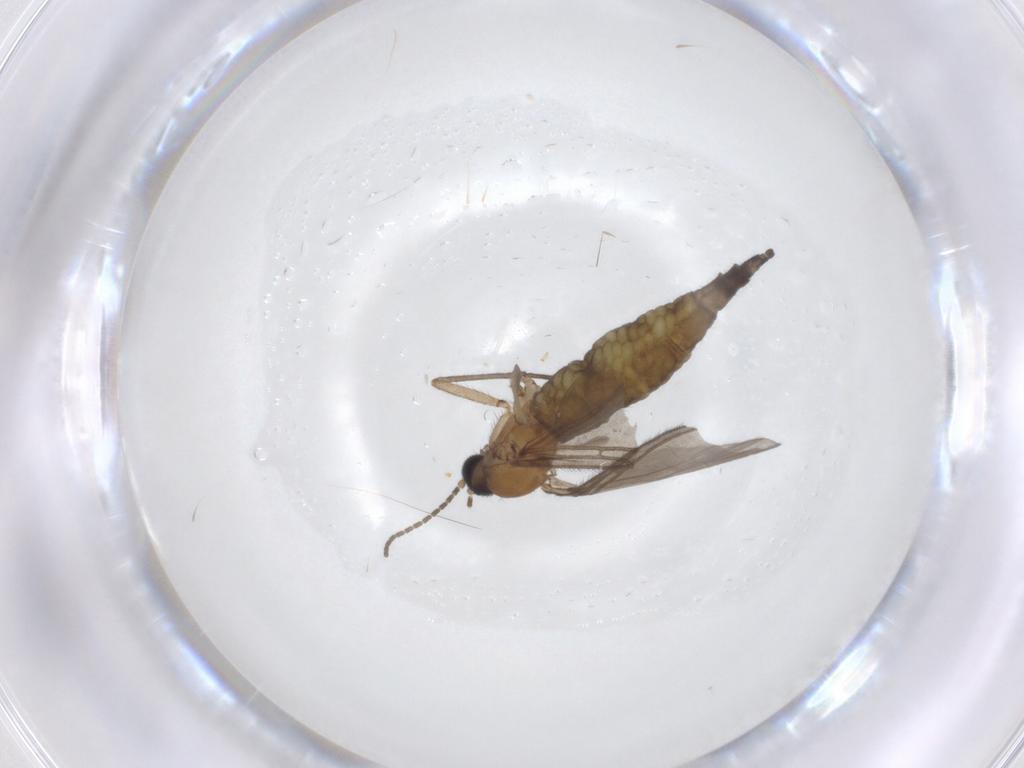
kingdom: Animalia
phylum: Arthropoda
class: Insecta
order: Diptera
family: Sciaridae
